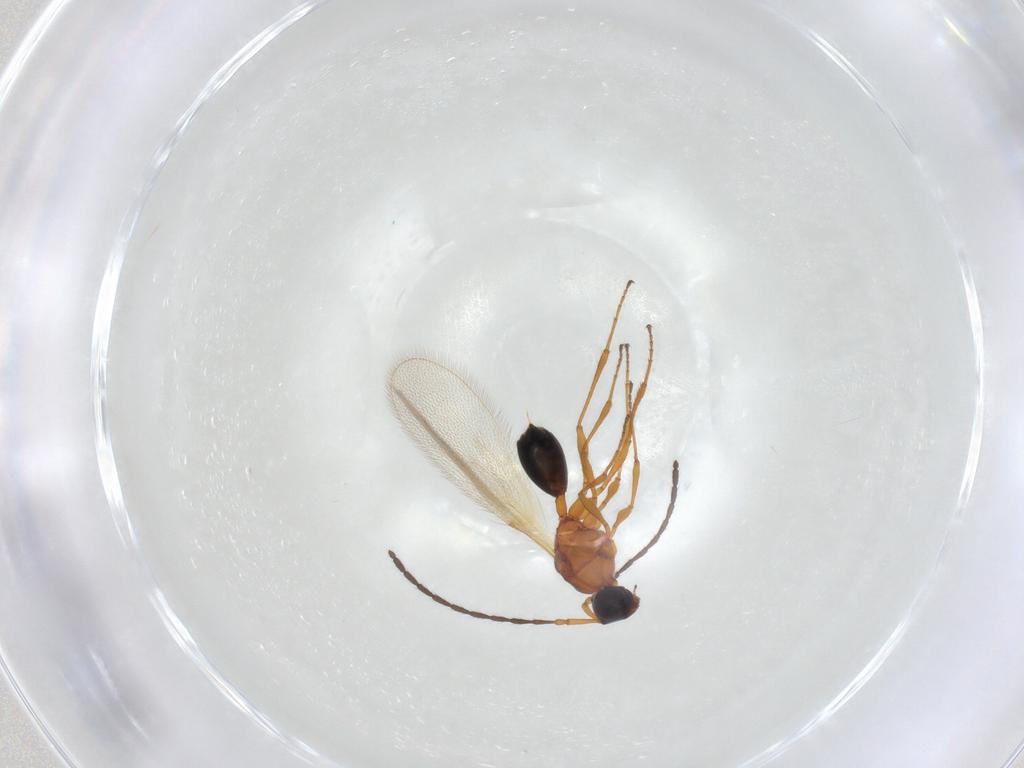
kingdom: Animalia
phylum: Arthropoda
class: Insecta
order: Hymenoptera
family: Diapriidae
